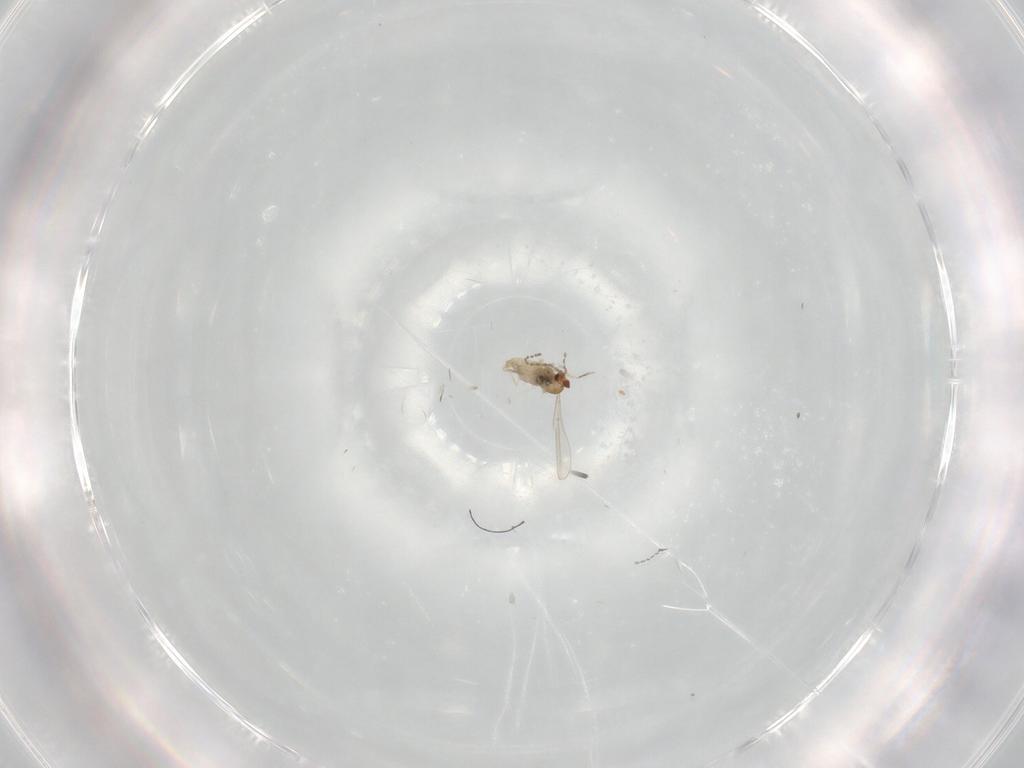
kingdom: Animalia
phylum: Arthropoda
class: Insecta
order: Diptera
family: Cecidomyiidae
